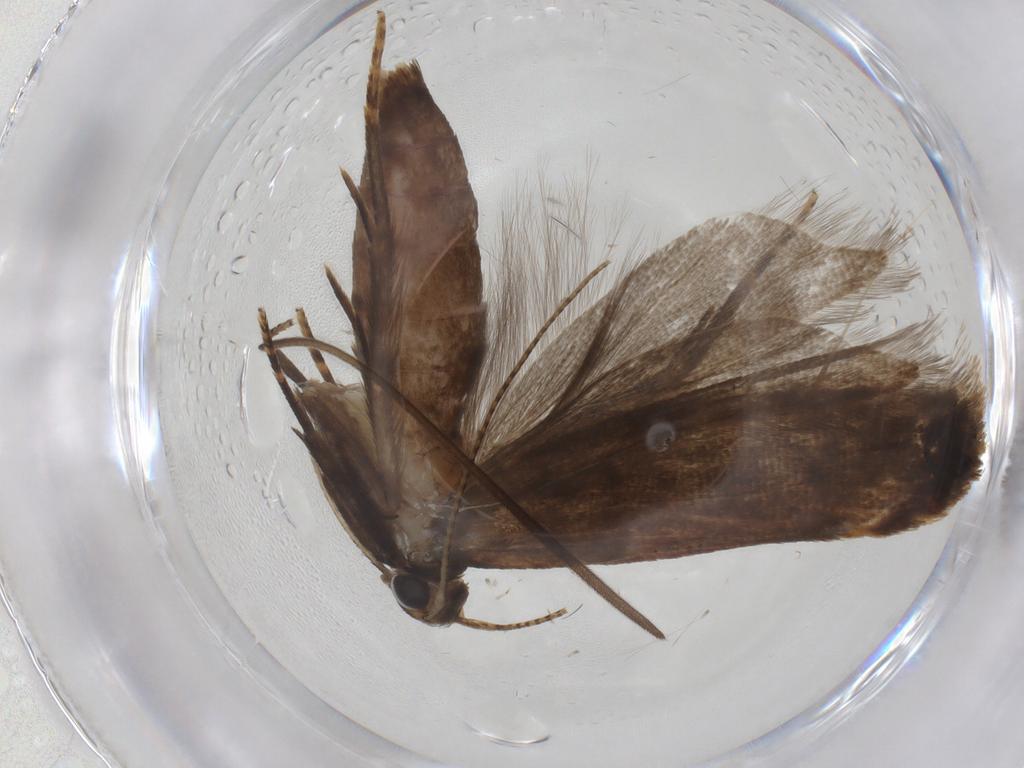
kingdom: Animalia
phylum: Arthropoda
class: Insecta
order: Lepidoptera
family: Gelechiidae
